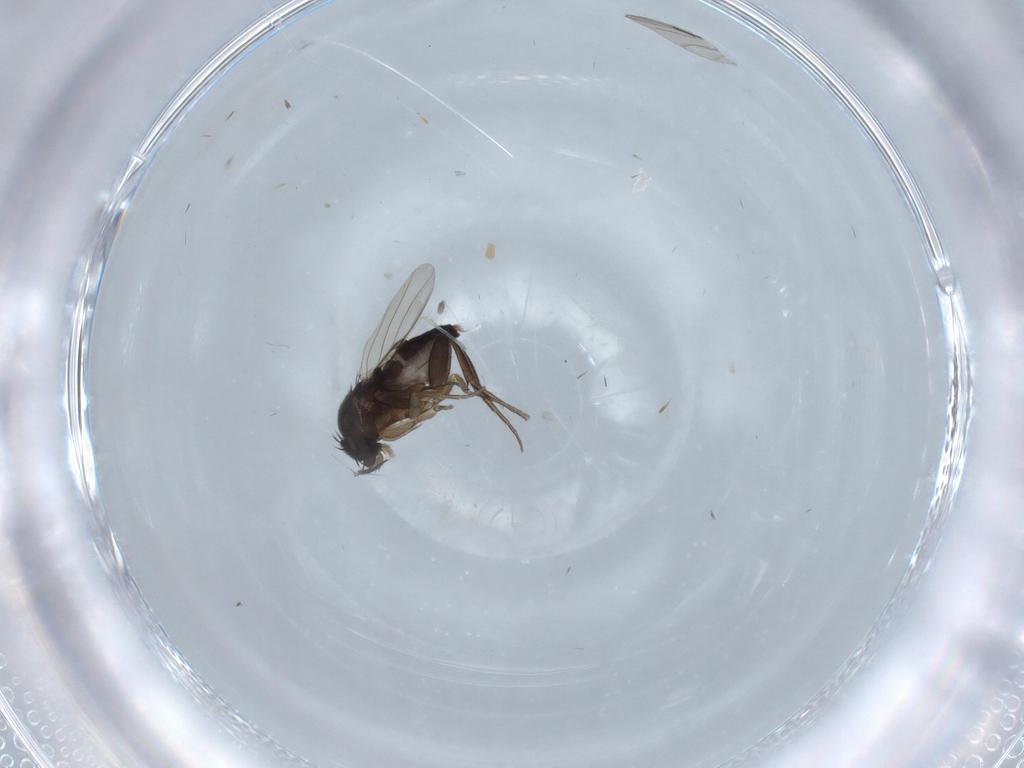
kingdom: Animalia
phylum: Arthropoda
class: Insecta
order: Diptera
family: Phoridae
